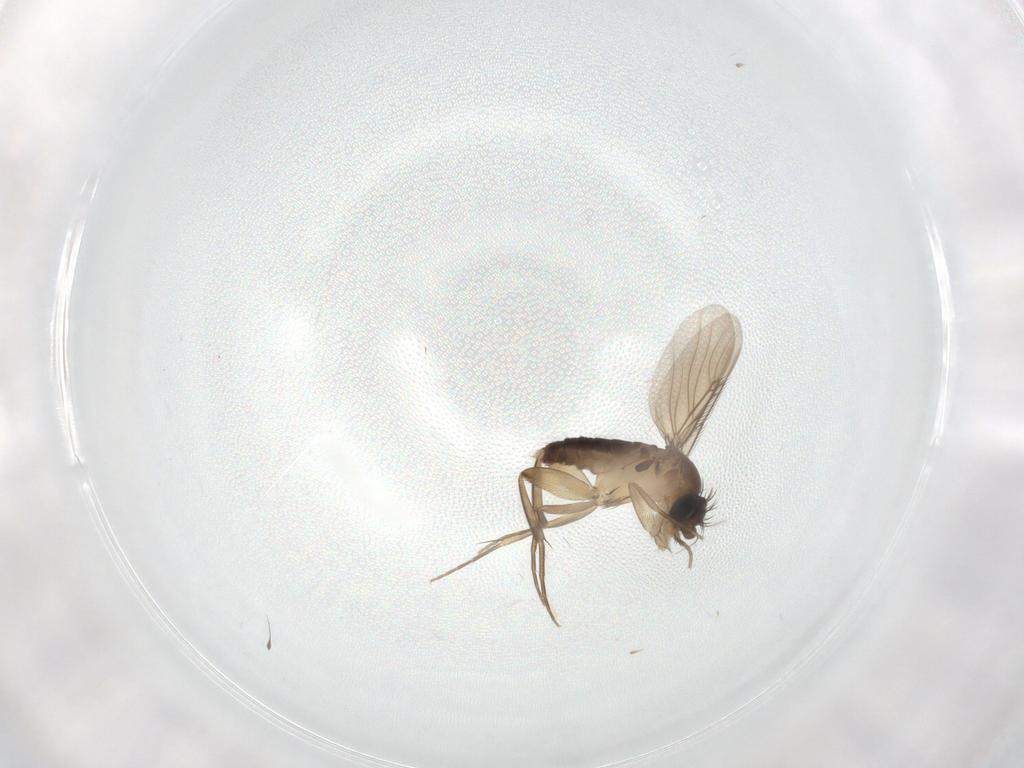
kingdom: Animalia
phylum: Arthropoda
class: Insecta
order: Diptera
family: Phoridae
